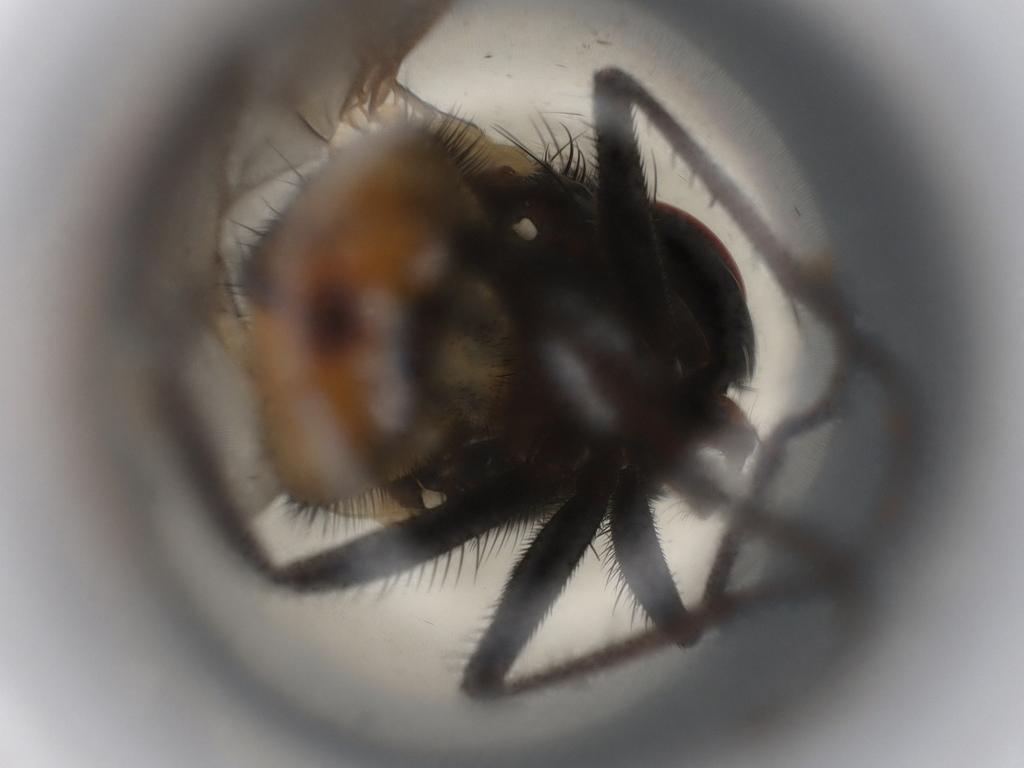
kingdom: Animalia
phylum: Arthropoda
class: Insecta
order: Diptera
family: Muscidae
